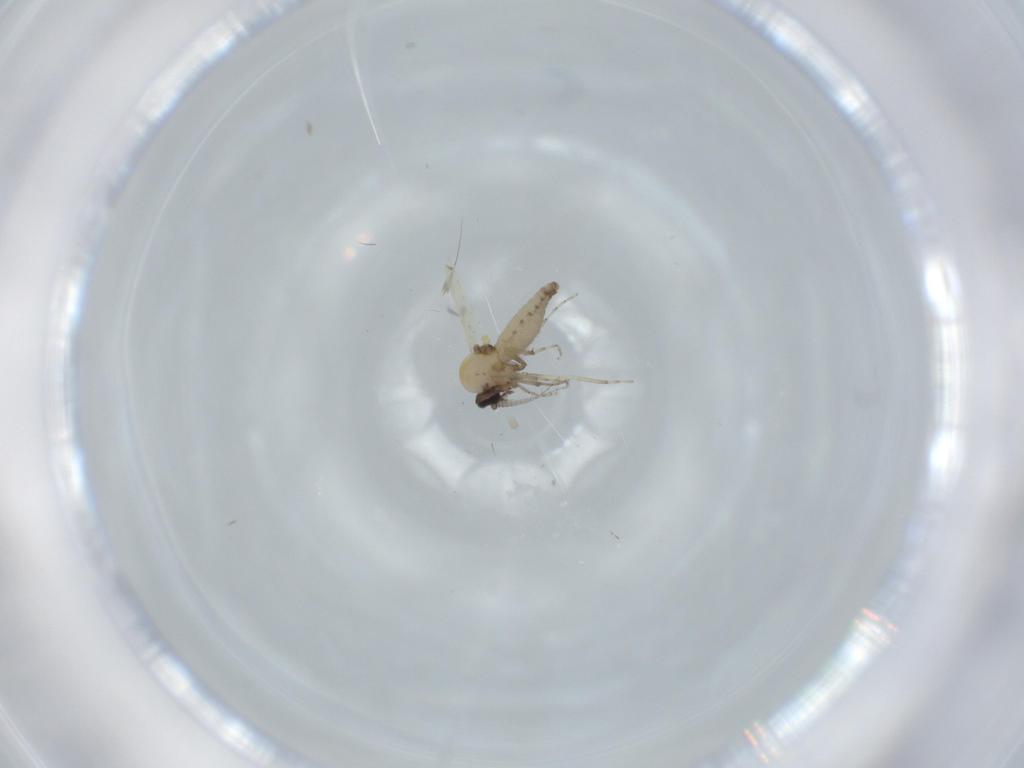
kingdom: Animalia
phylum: Arthropoda
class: Insecta
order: Diptera
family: Ceratopogonidae
